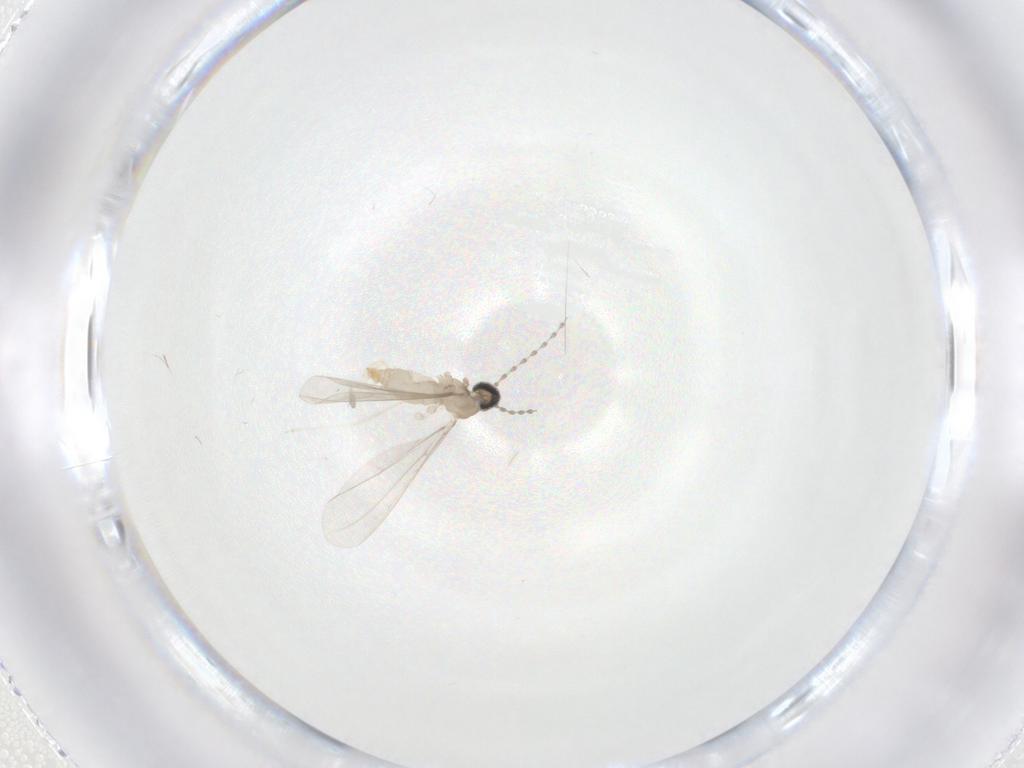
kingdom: Animalia
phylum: Arthropoda
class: Insecta
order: Diptera
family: Cecidomyiidae
